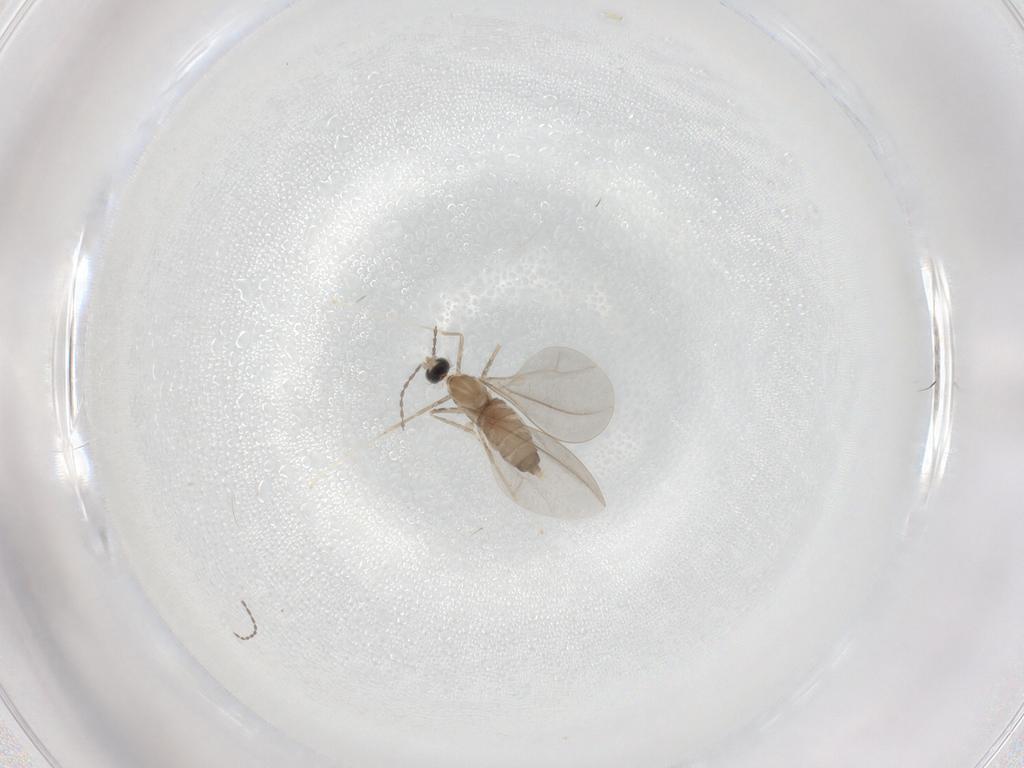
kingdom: Animalia
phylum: Arthropoda
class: Insecta
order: Diptera
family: Cecidomyiidae
